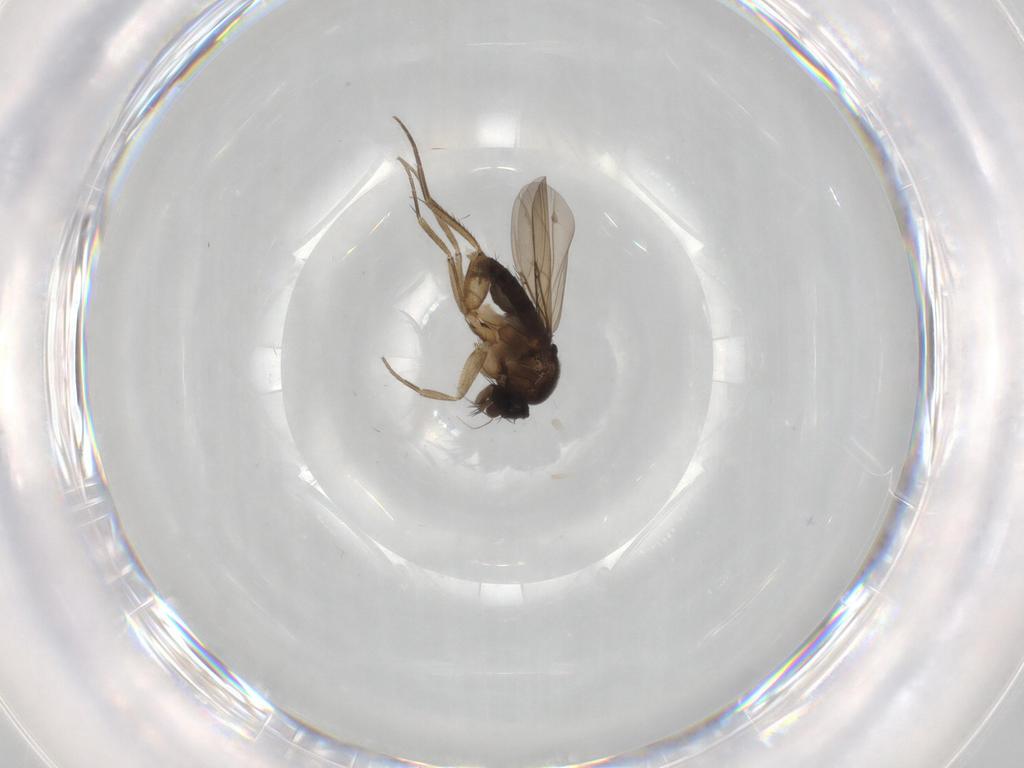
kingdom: Animalia
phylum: Arthropoda
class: Insecta
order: Diptera
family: Phoridae
